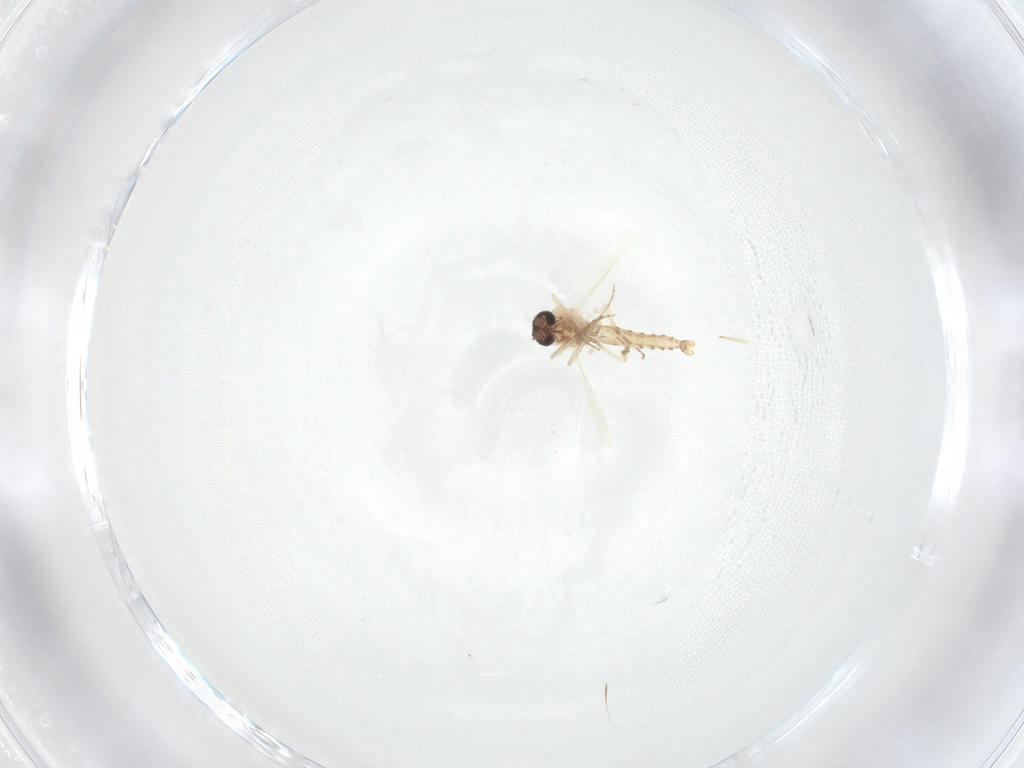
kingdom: Animalia
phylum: Arthropoda
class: Insecta
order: Diptera
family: Ceratopogonidae
